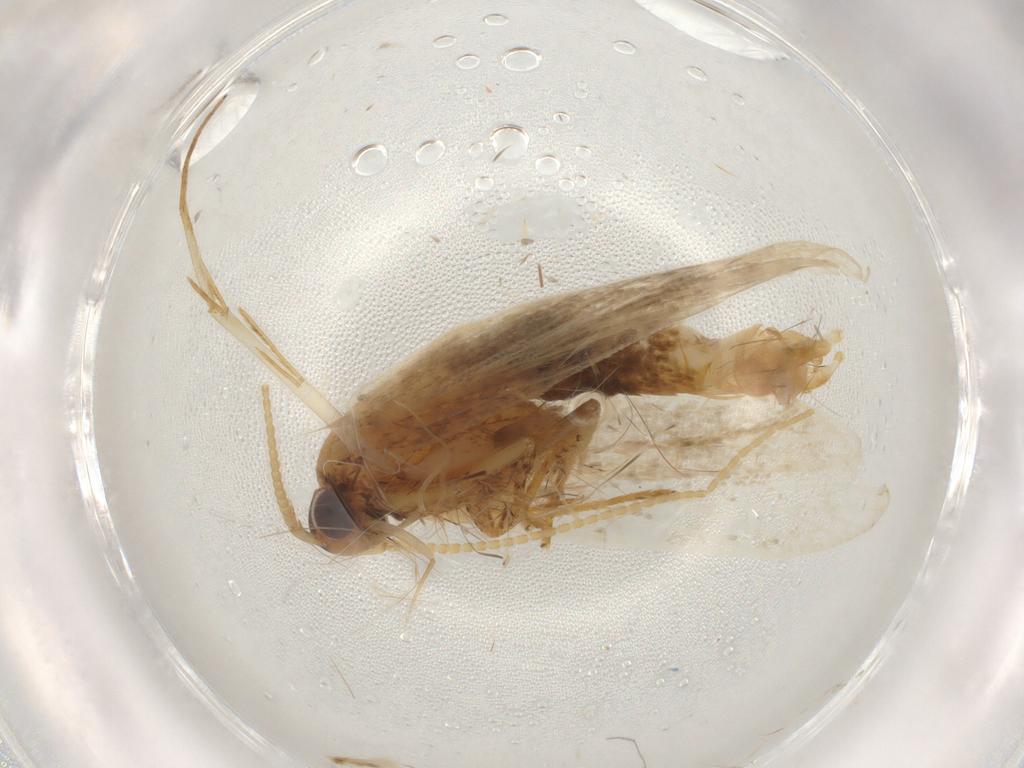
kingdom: Animalia
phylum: Arthropoda
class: Insecta
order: Lepidoptera
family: Lecithoceridae
